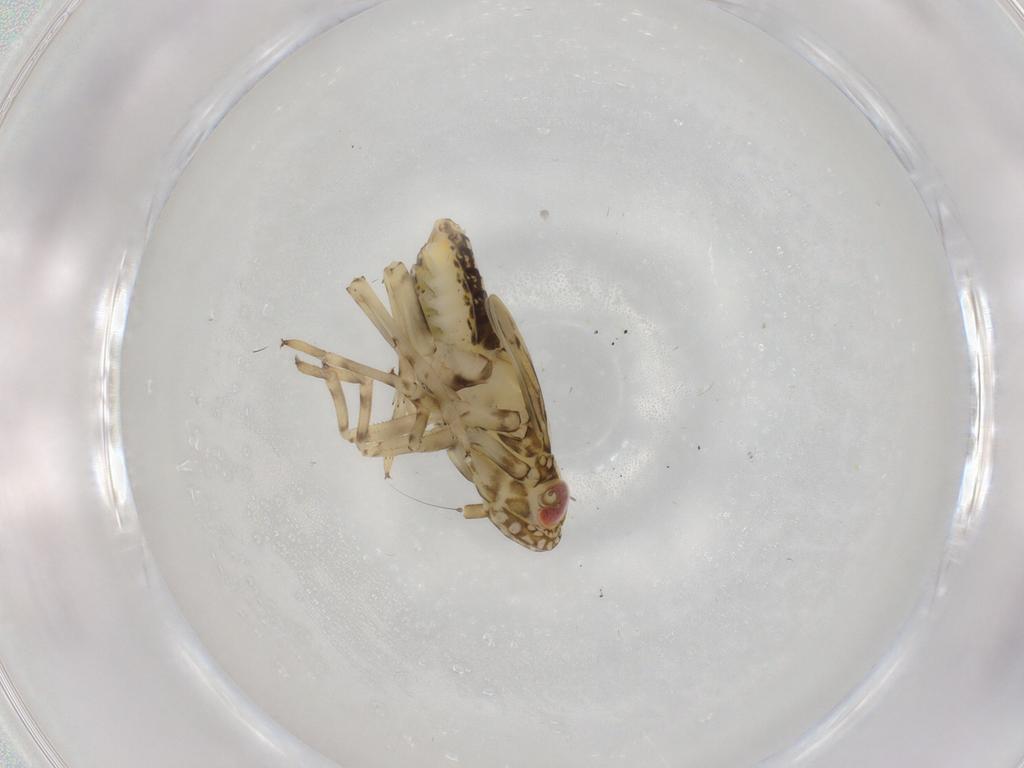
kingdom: Animalia
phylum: Arthropoda
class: Insecta
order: Hemiptera
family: Delphacidae
